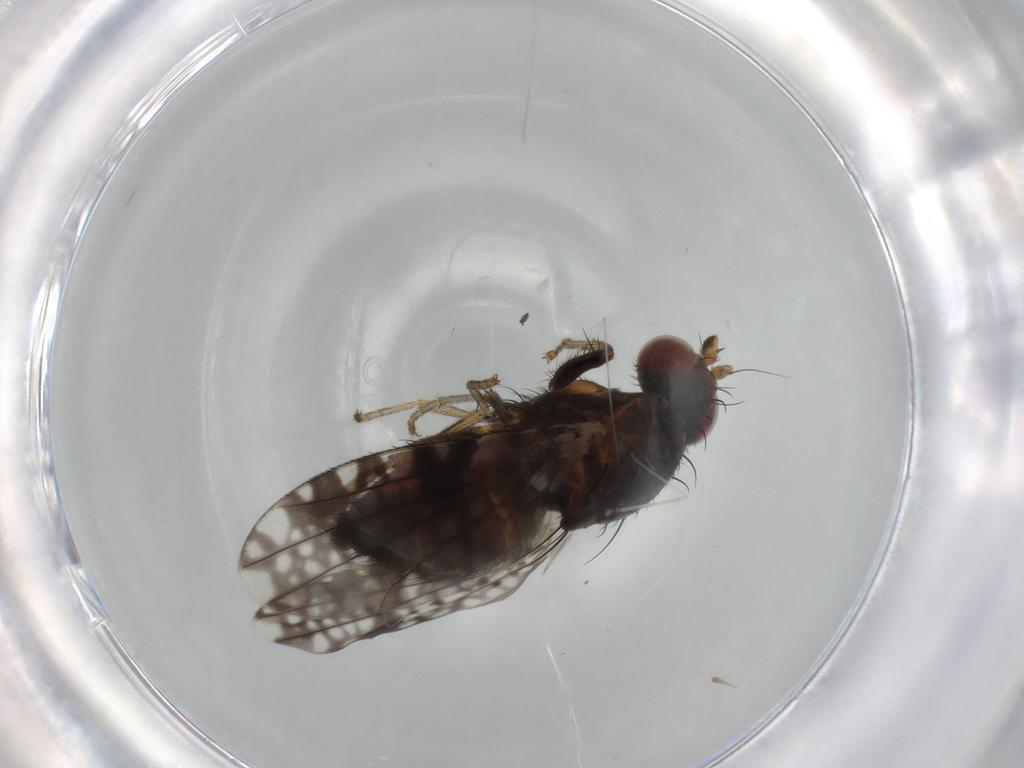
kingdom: Animalia
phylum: Arthropoda
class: Insecta
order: Diptera
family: Tephritidae
